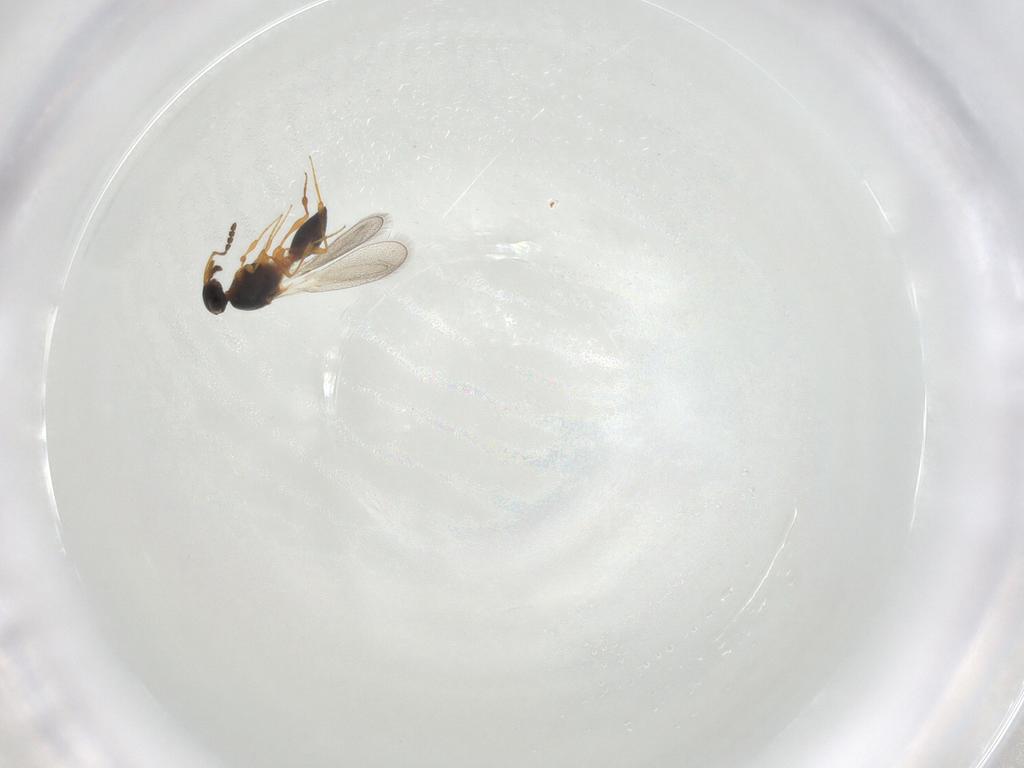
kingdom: Animalia
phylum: Arthropoda
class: Insecta
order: Hymenoptera
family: Platygastridae
